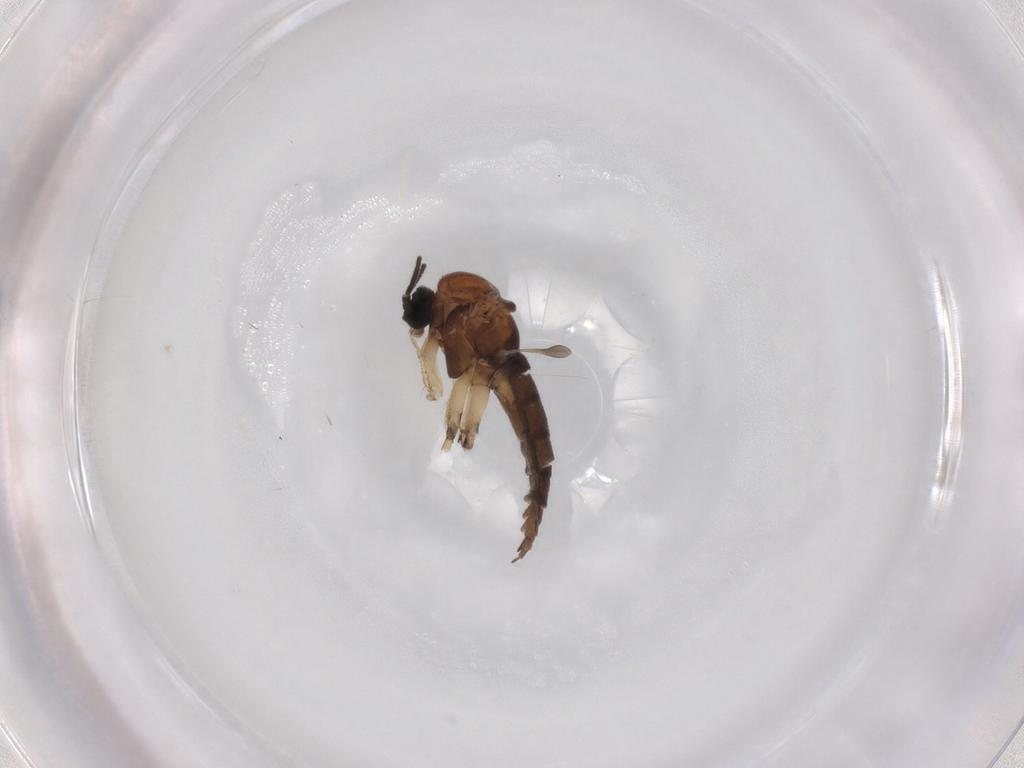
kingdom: Animalia
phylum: Arthropoda
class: Insecta
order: Diptera
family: Sciaridae
